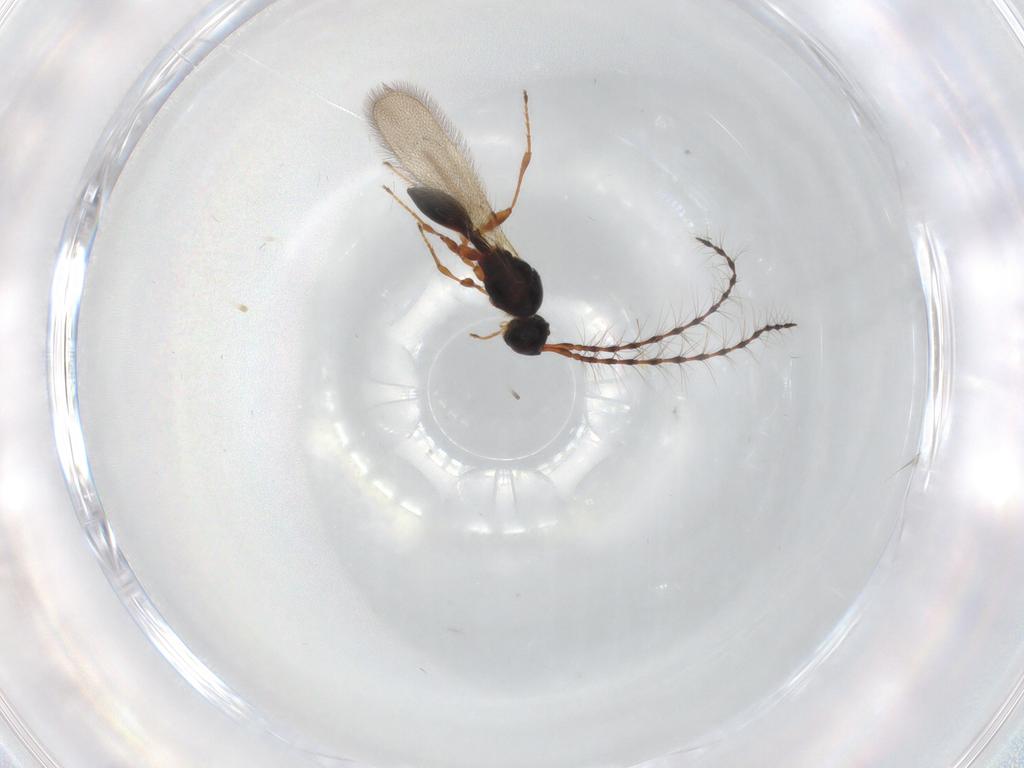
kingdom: Animalia
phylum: Arthropoda
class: Insecta
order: Hymenoptera
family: Diapriidae
